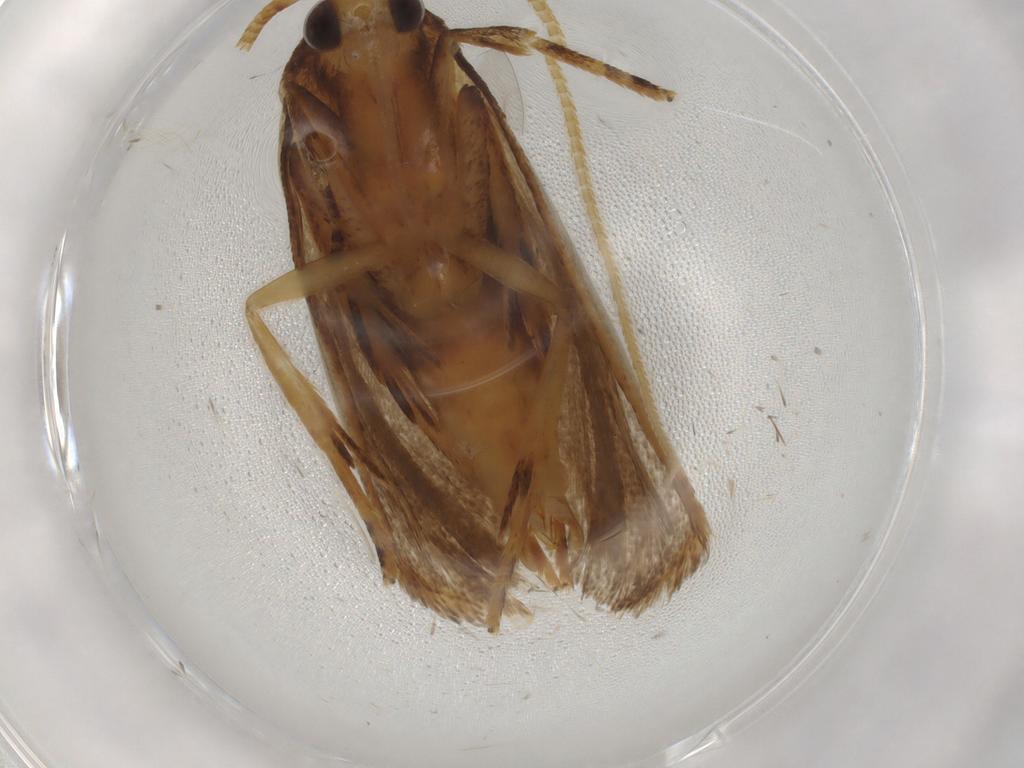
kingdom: Animalia
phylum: Arthropoda
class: Insecta
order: Lepidoptera
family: Lecithoceridae
